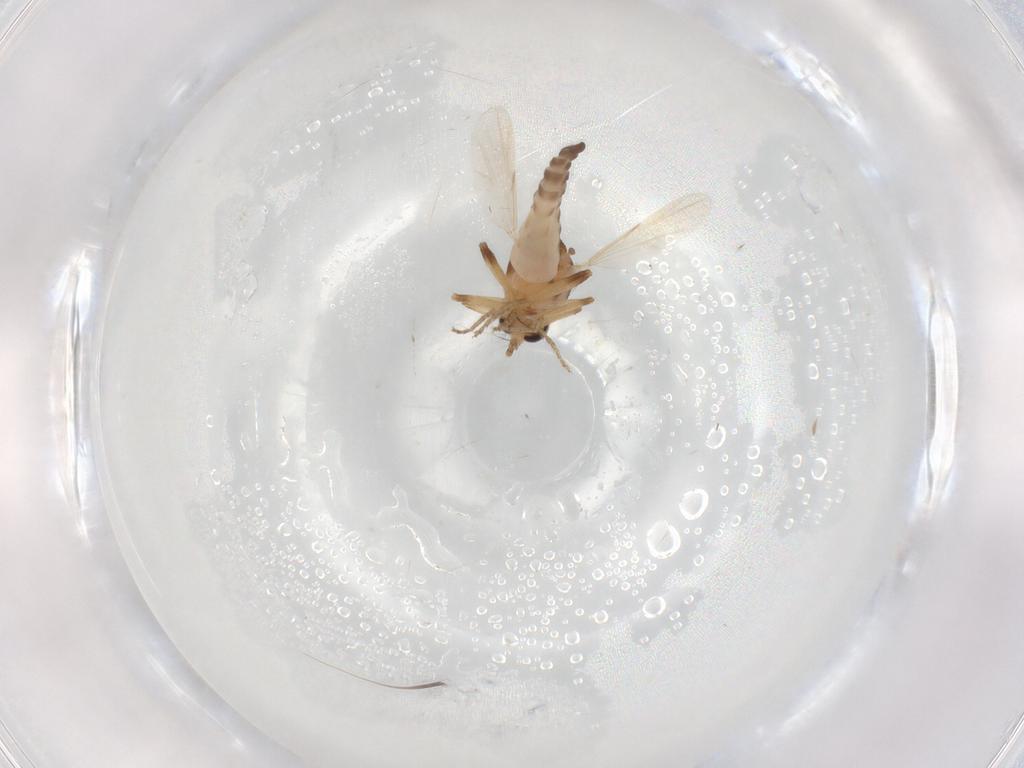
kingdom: Animalia
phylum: Arthropoda
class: Insecta
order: Diptera
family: Ceratopogonidae
